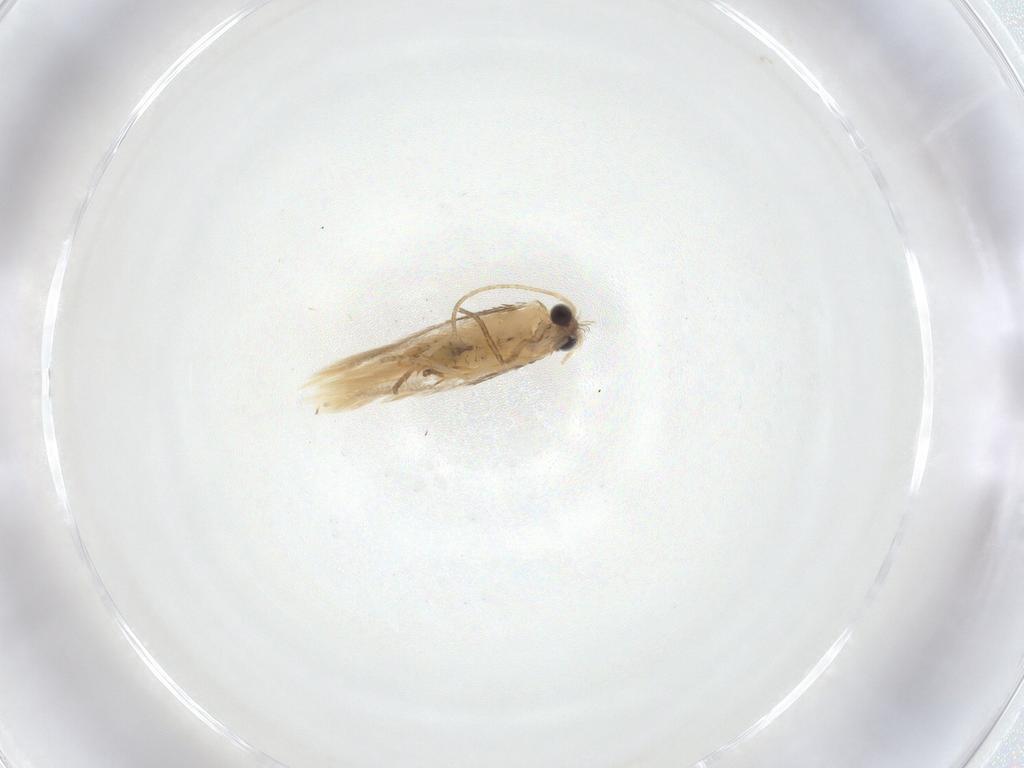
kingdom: Animalia
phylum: Arthropoda
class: Insecta
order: Lepidoptera
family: Nepticulidae
